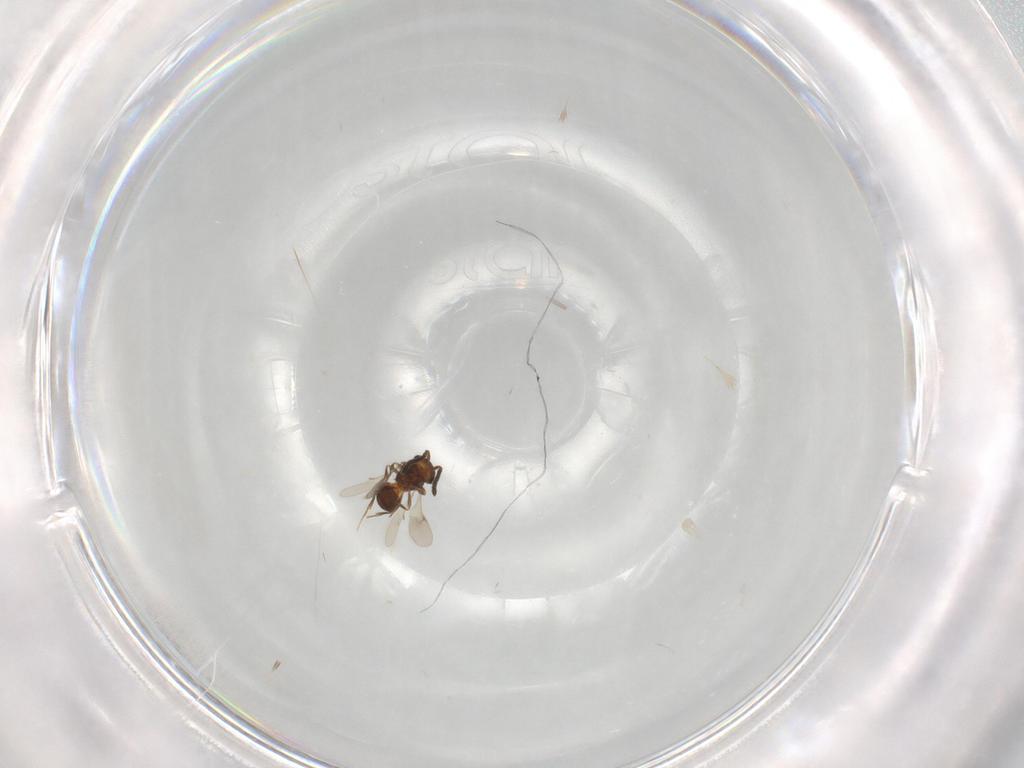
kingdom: Animalia
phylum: Arthropoda
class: Insecta
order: Hymenoptera
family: Scelionidae
